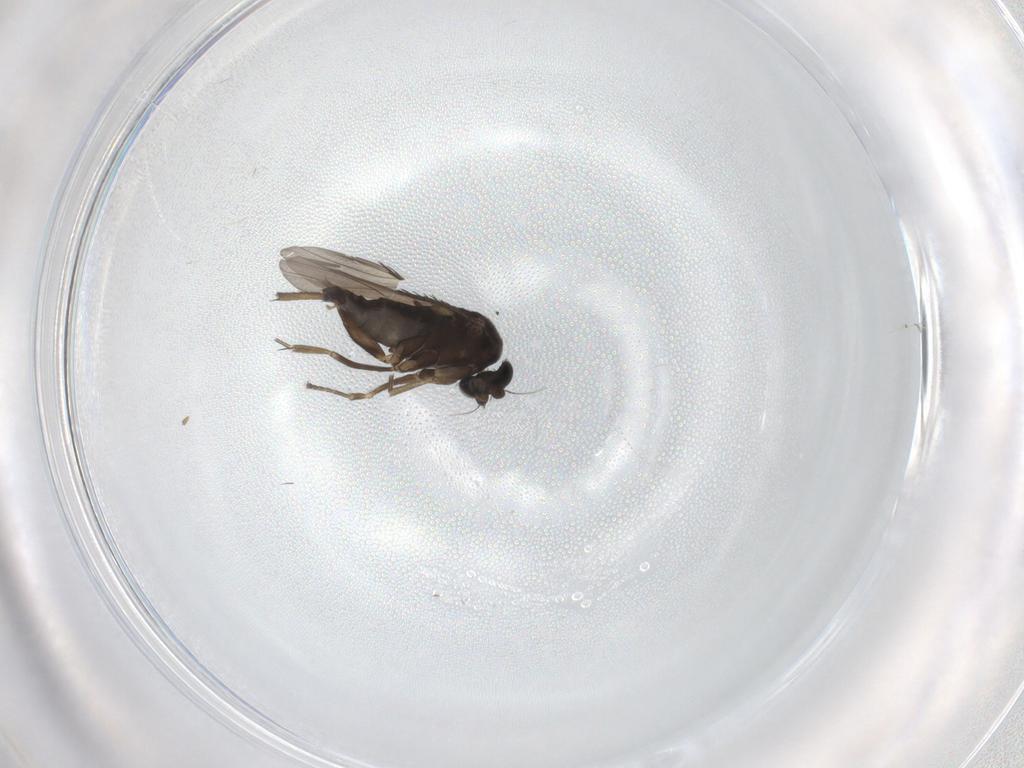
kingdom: Animalia
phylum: Arthropoda
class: Insecta
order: Diptera
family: Phoridae
